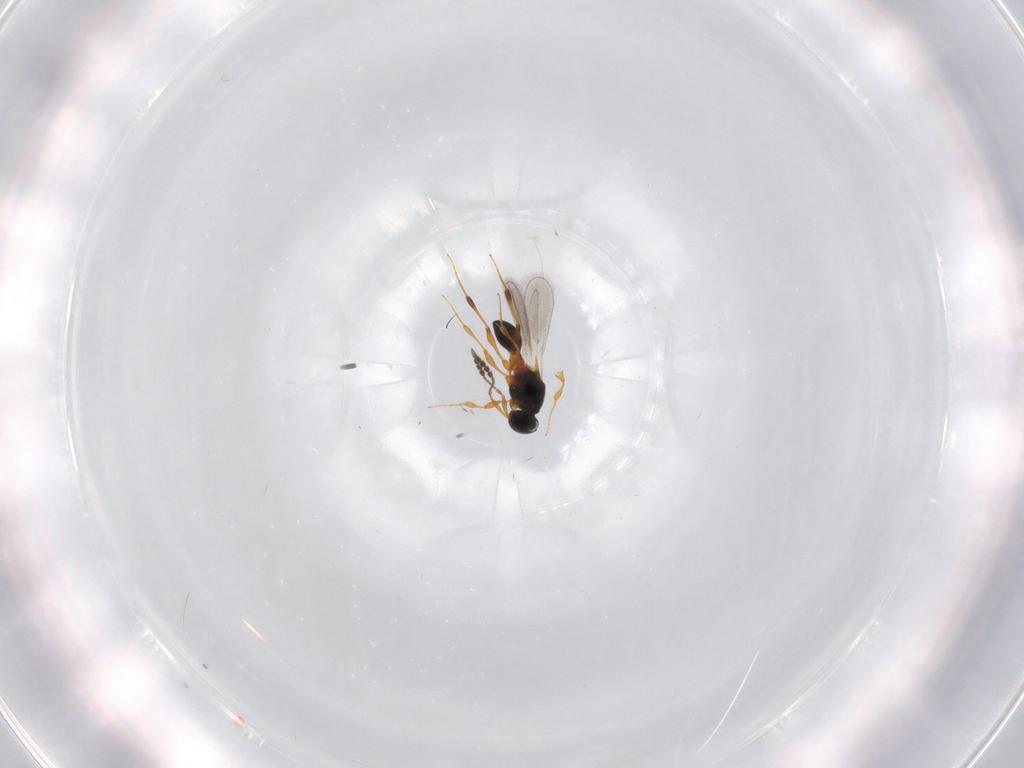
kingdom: Animalia
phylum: Arthropoda
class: Insecta
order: Hymenoptera
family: Platygastridae
